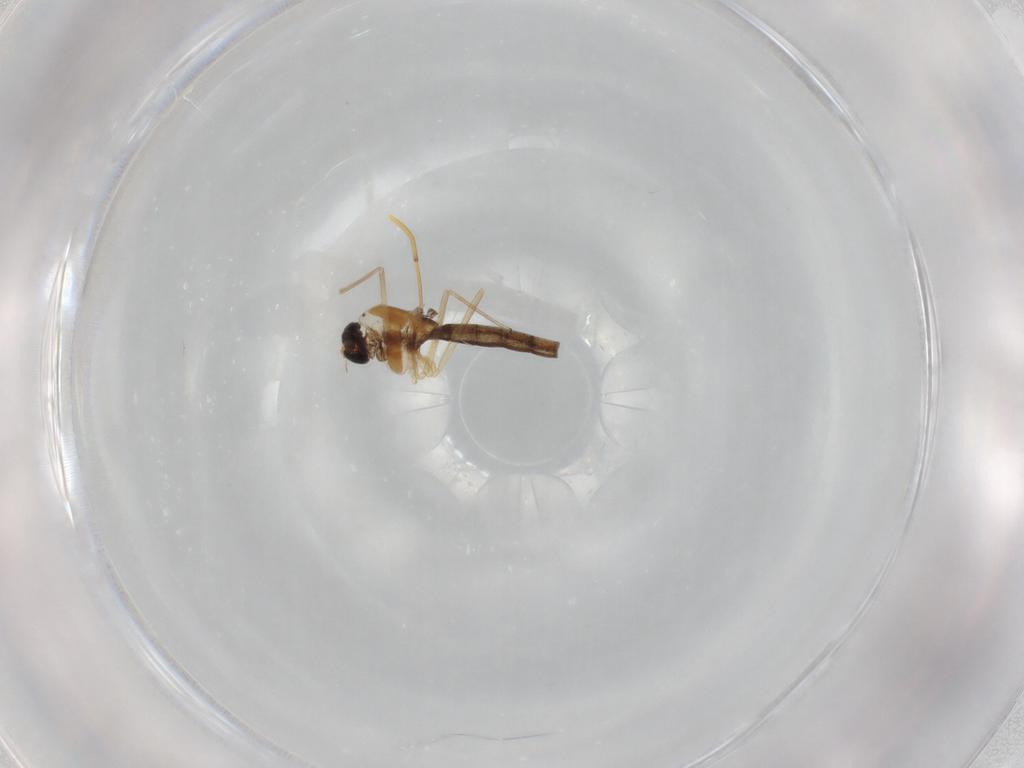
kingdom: Animalia
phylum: Arthropoda
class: Insecta
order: Diptera
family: Chironomidae
